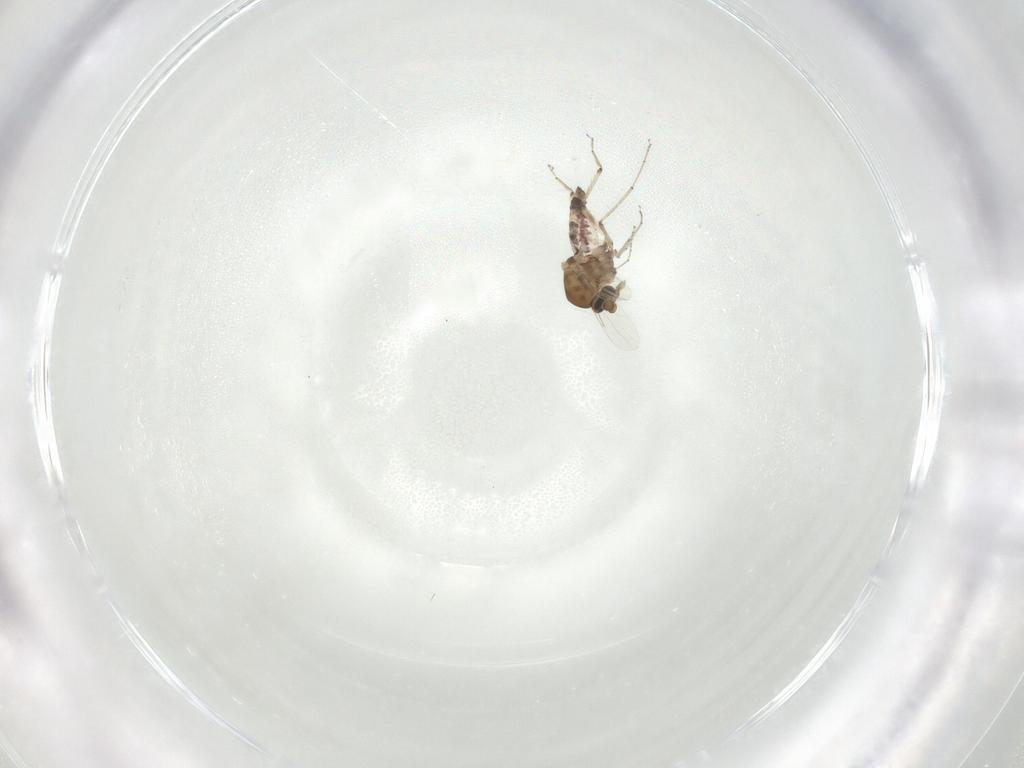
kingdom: Animalia
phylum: Arthropoda
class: Insecta
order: Diptera
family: Ceratopogonidae
